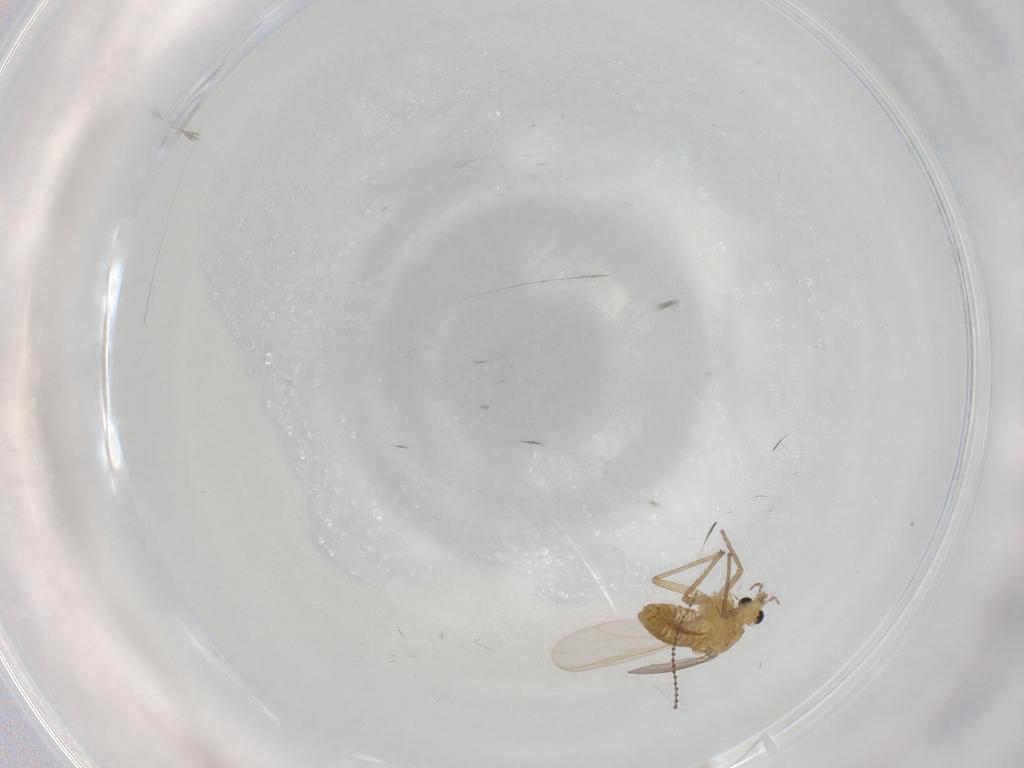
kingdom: Animalia
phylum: Arthropoda
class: Insecta
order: Diptera
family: Chironomidae
